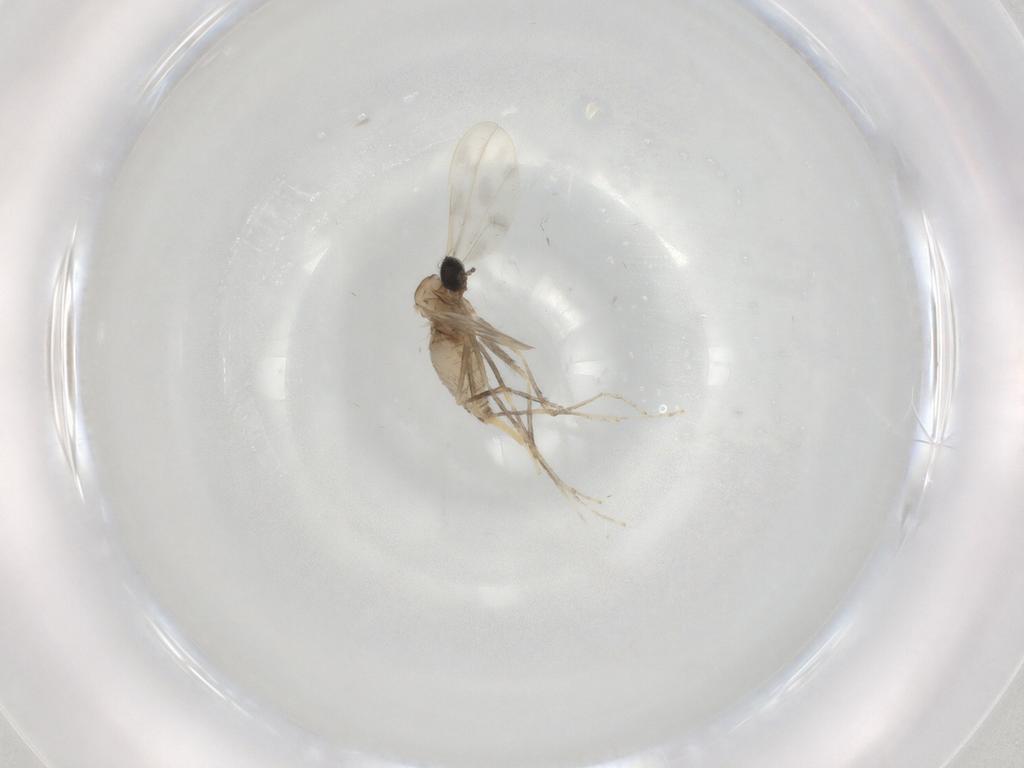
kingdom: Animalia
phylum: Arthropoda
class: Insecta
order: Diptera
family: Cecidomyiidae
